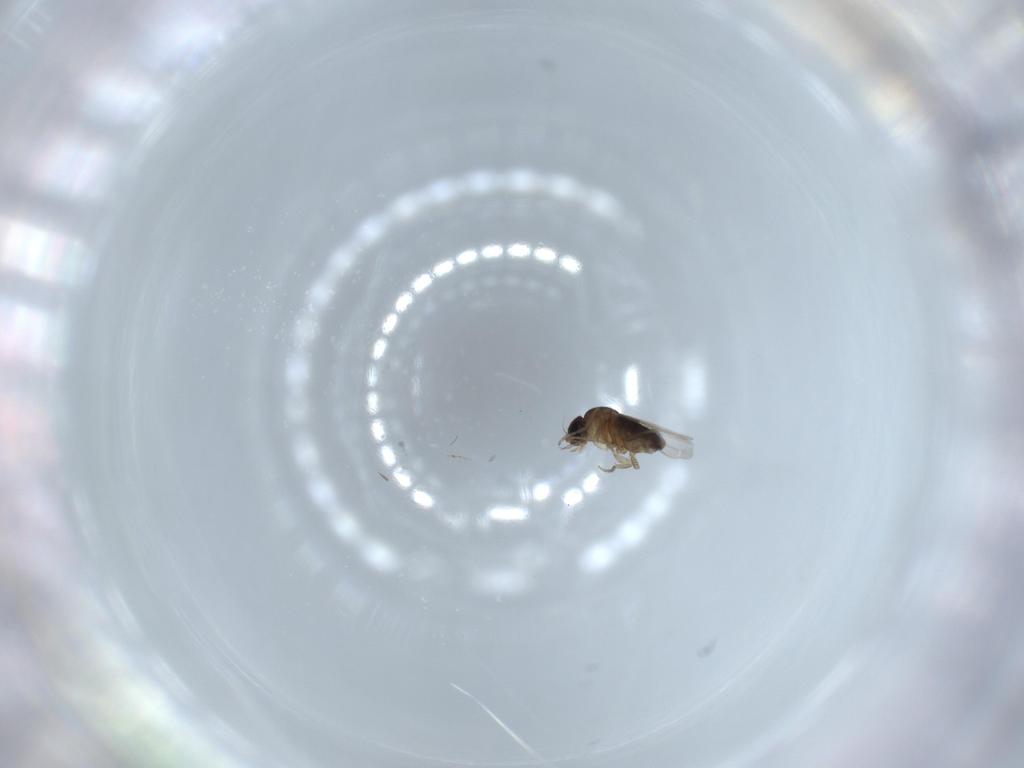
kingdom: Animalia
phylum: Arthropoda
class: Insecta
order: Diptera
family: Phoridae
